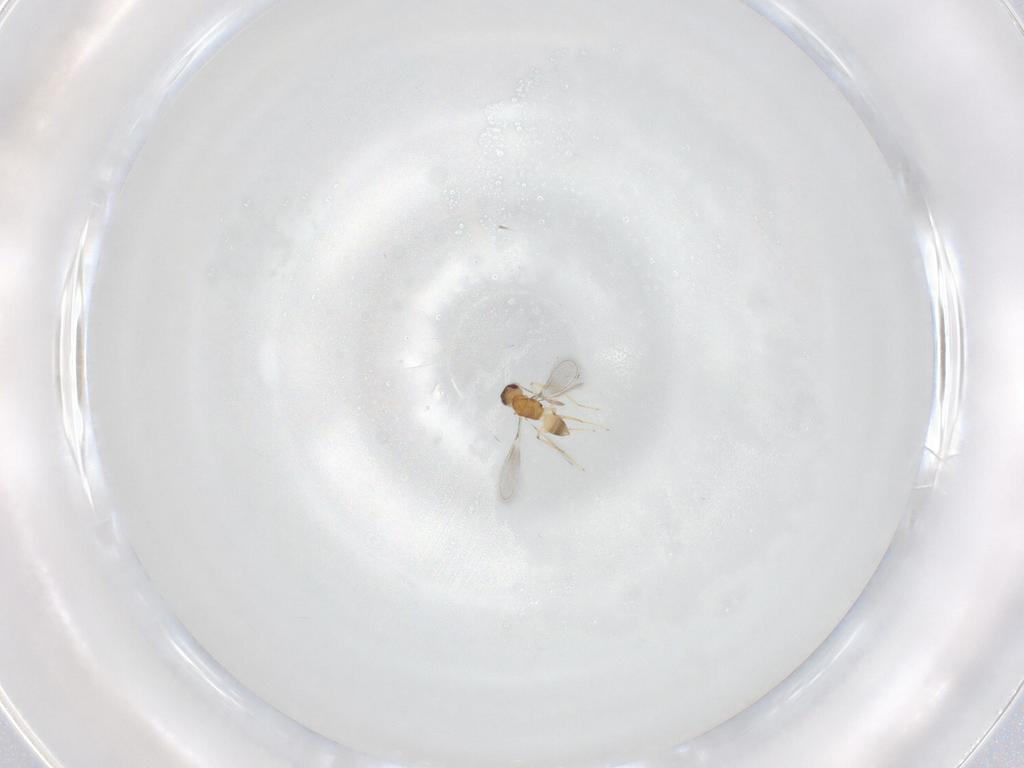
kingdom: Animalia
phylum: Arthropoda
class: Insecta
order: Hymenoptera
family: Mymaridae
